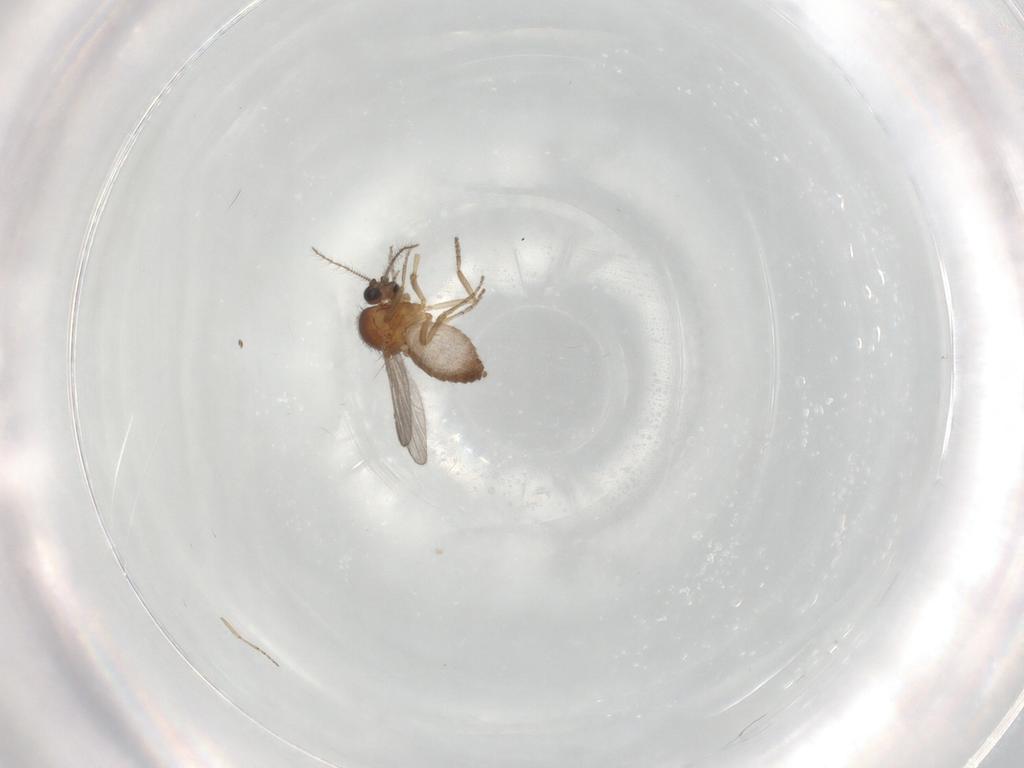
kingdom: Animalia
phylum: Arthropoda
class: Insecta
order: Diptera
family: Ceratopogonidae
